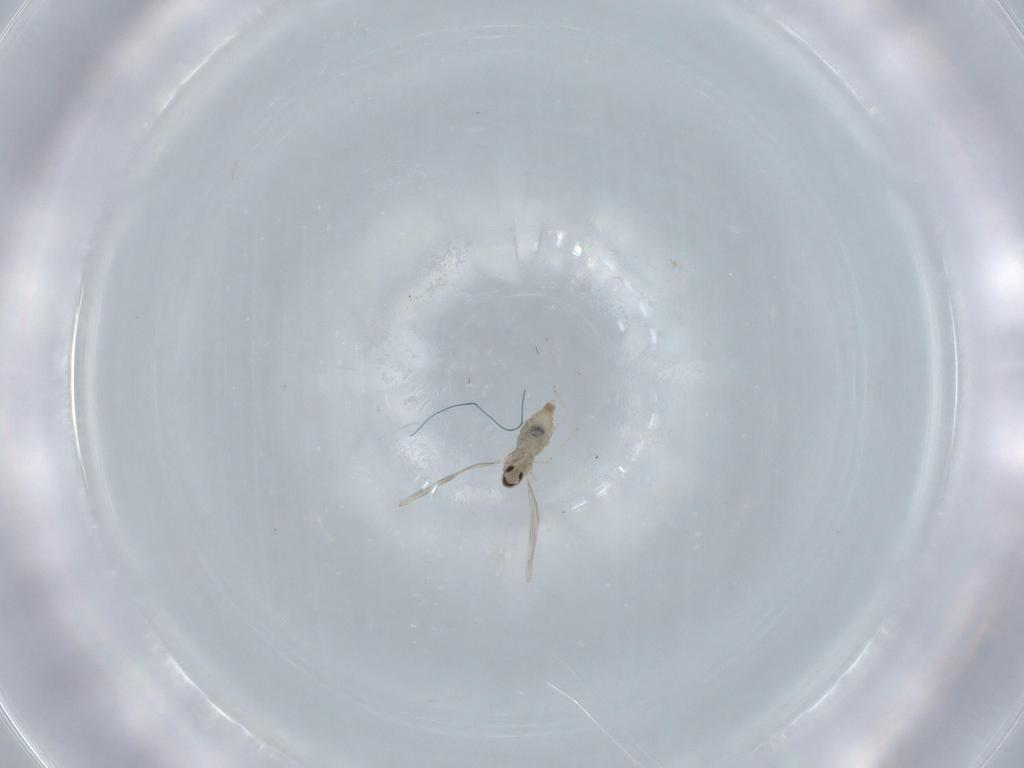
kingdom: Animalia
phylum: Arthropoda
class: Insecta
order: Diptera
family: Cecidomyiidae
